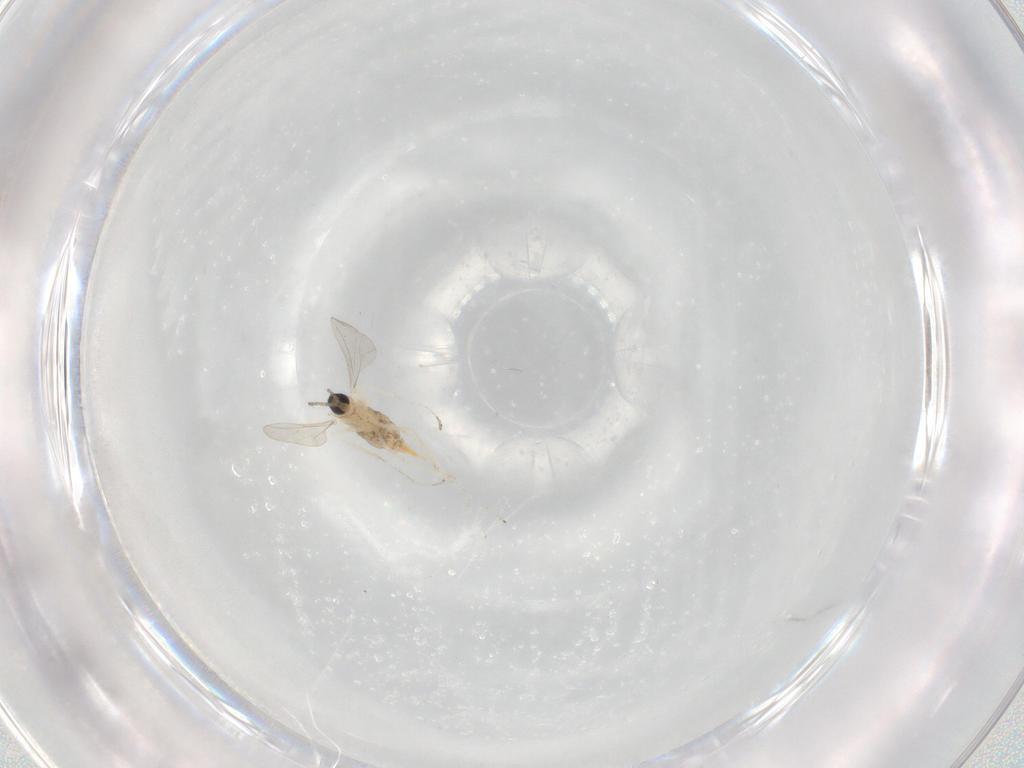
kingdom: Animalia
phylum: Arthropoda
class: Insecta
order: Diptera
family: Cecidomyiidae
